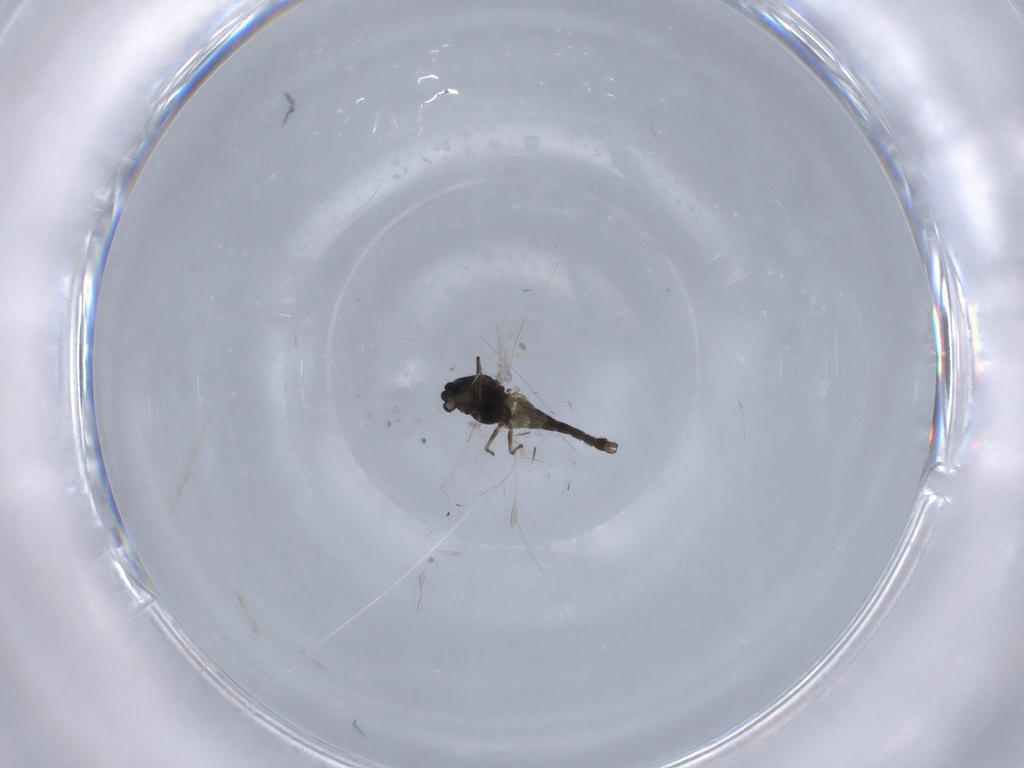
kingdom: Animalia
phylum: Arthropoda
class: Insecta
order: Diptera
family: Scatopsidae
